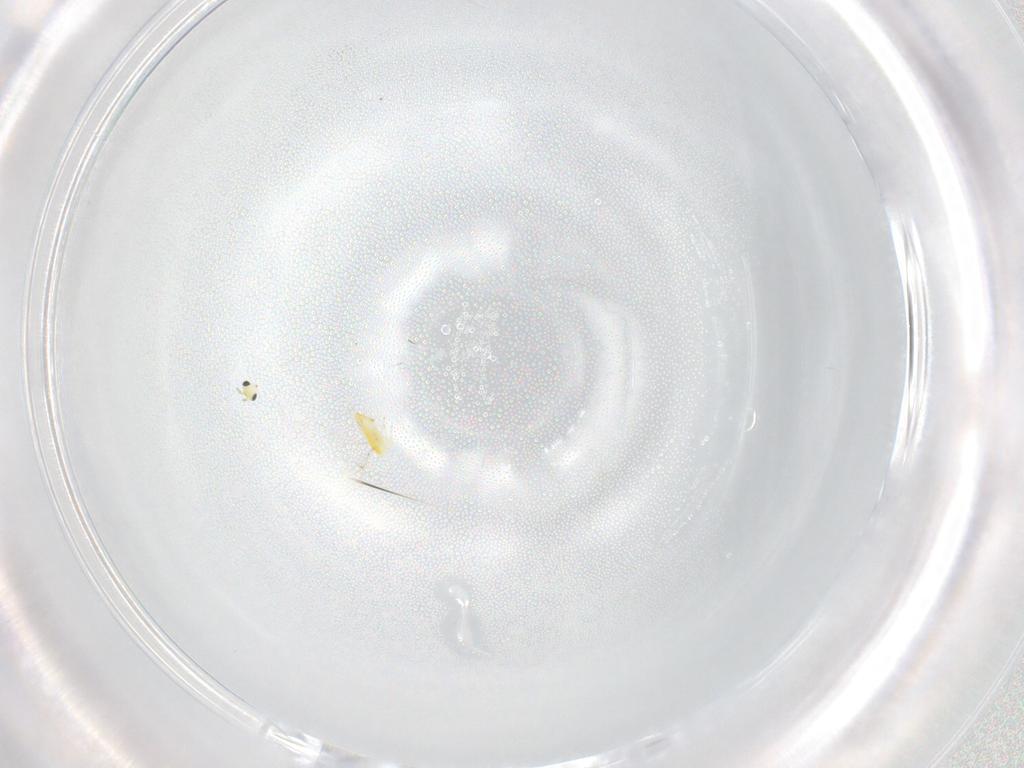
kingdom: Animalia
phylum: Arthropoda
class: Insecta
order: Hymenoptera
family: Trichogrammatidae
